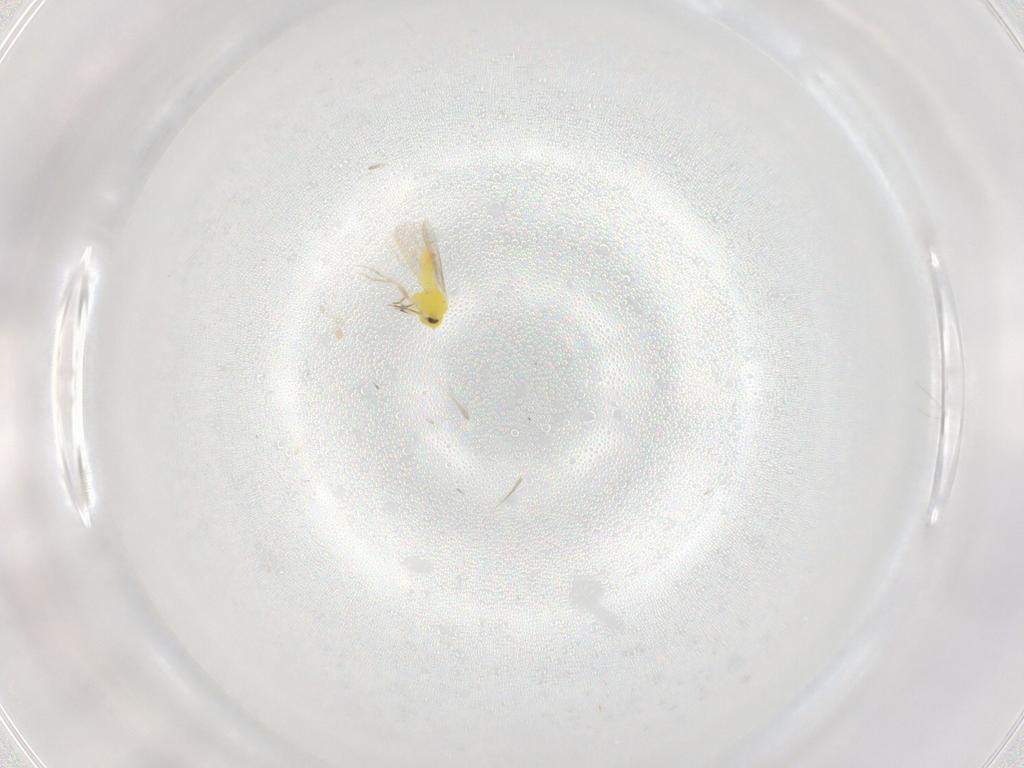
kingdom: Animalia
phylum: Arthropoda
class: Insecta
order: Hemiptera
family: Aleyrodidae
